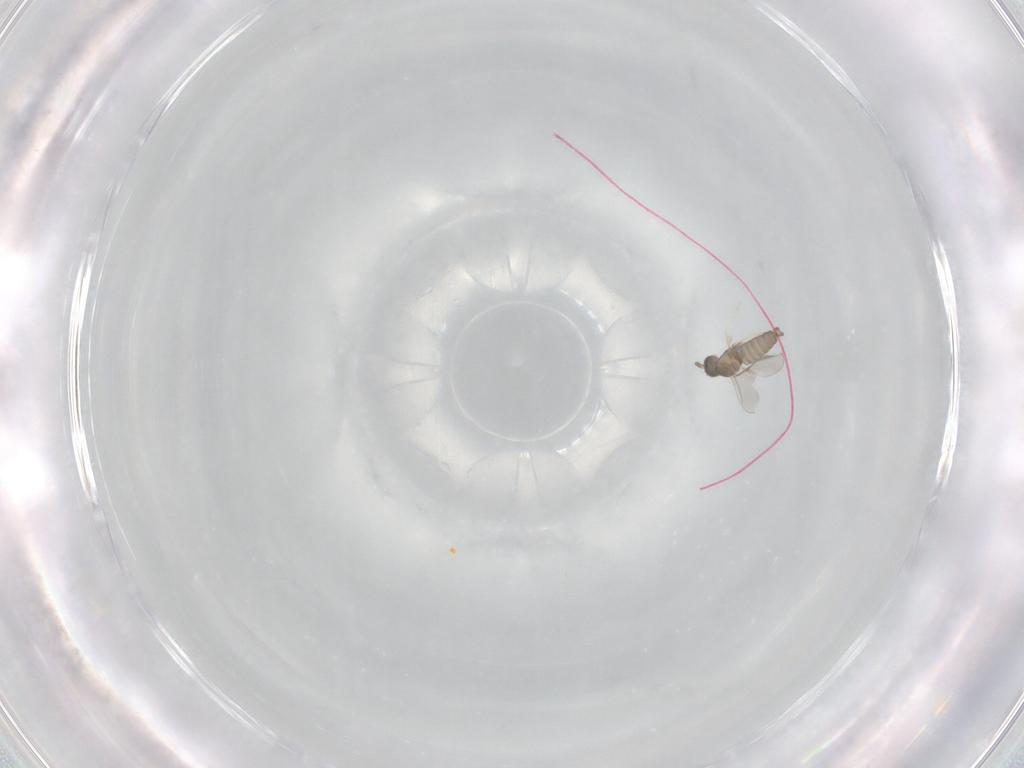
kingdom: Animalia
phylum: Arthropoda
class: Insecta
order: Diptera
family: Cecidomyiidae
